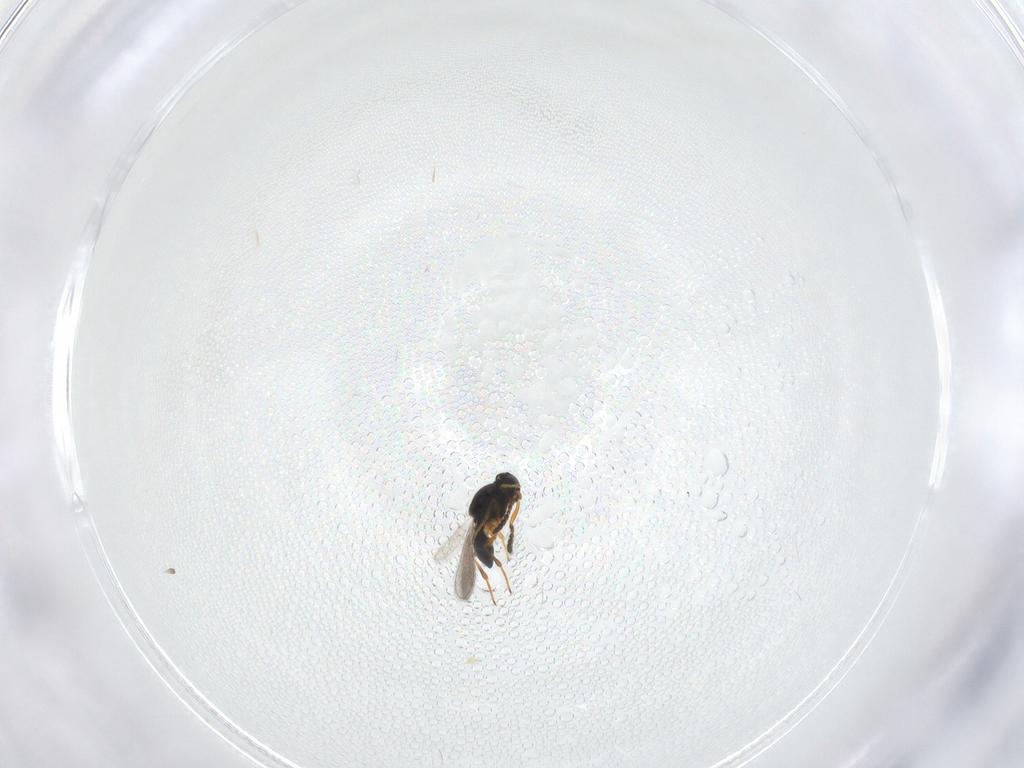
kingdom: Animalia
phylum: Arthropoda
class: Insecta
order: Hymenoptera
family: Platygastridae
